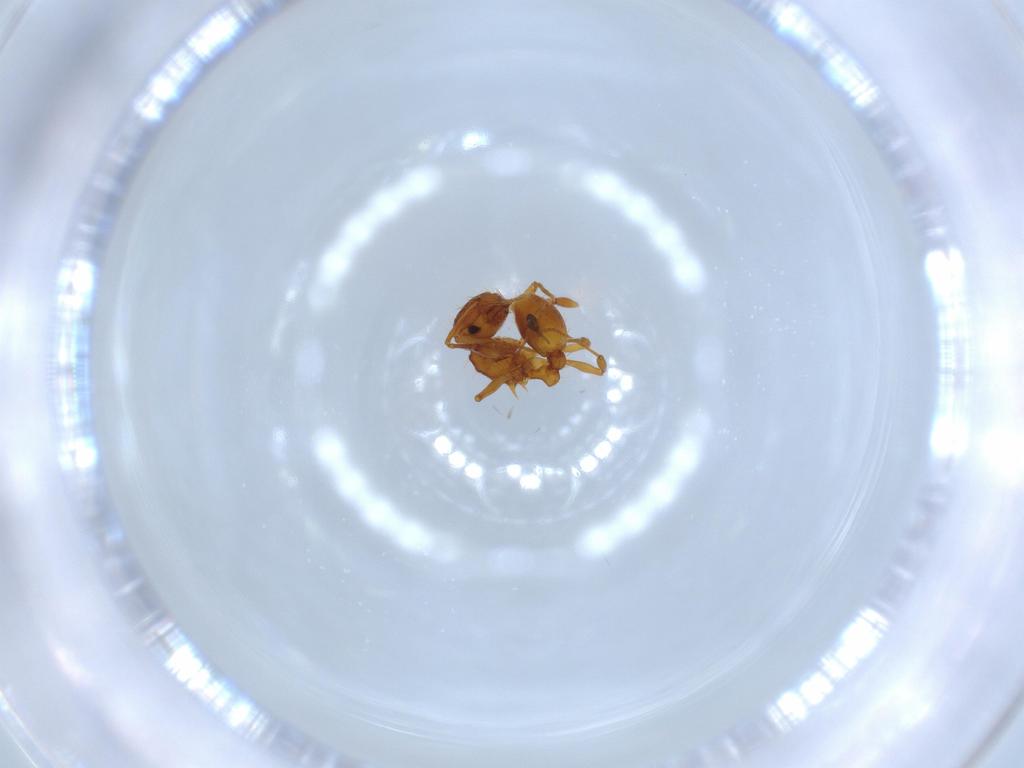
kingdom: Animalia
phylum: Arthropoda
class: Insecta
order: Hymenoptera
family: Formicidae
